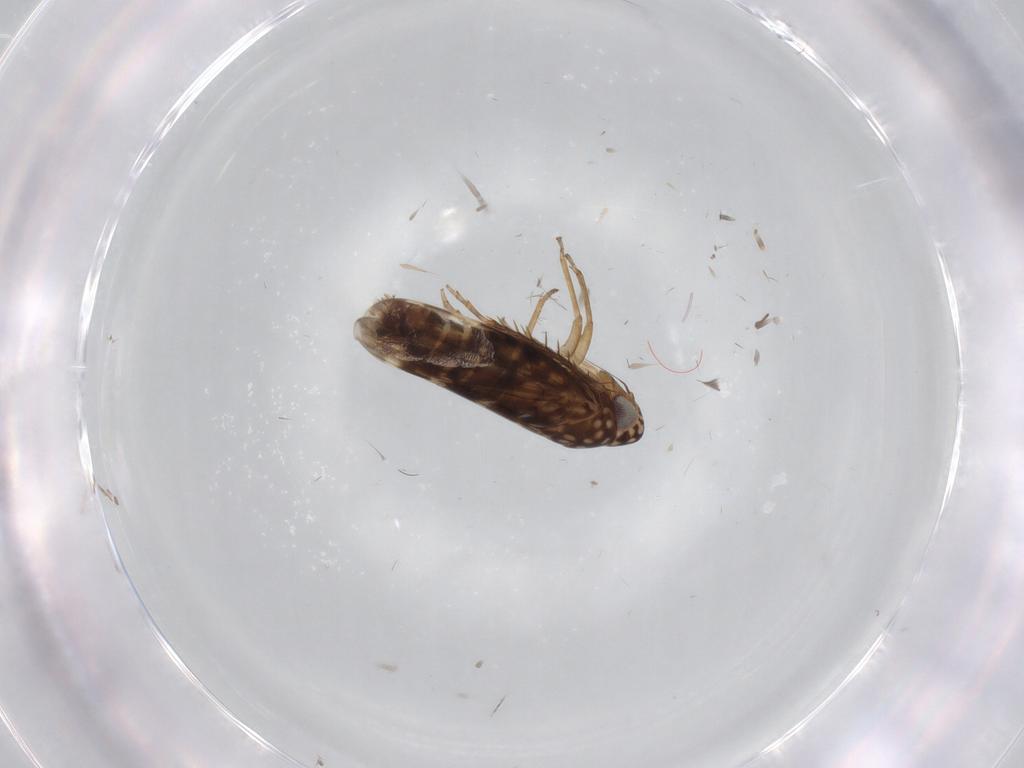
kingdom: Animalia
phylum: Arthropoda
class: Insecta
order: Hemiptera
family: Cicadellidae
